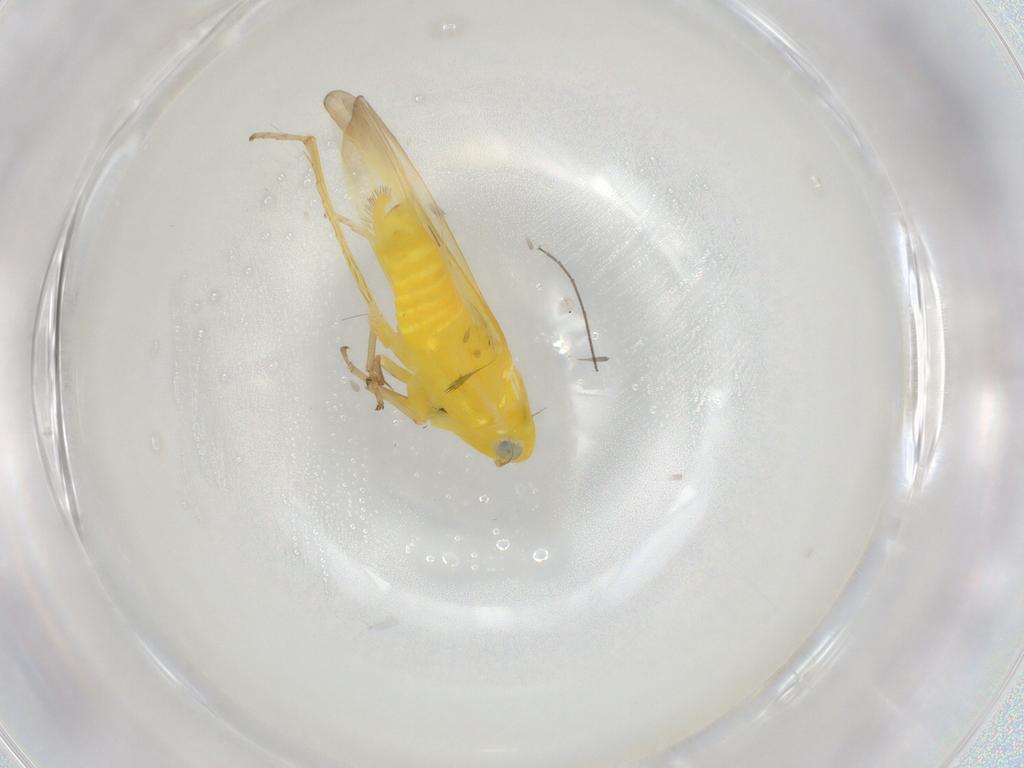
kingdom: Animalia
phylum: Arthropoda
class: Insecta
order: Hemiptera
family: Cicadellidae
